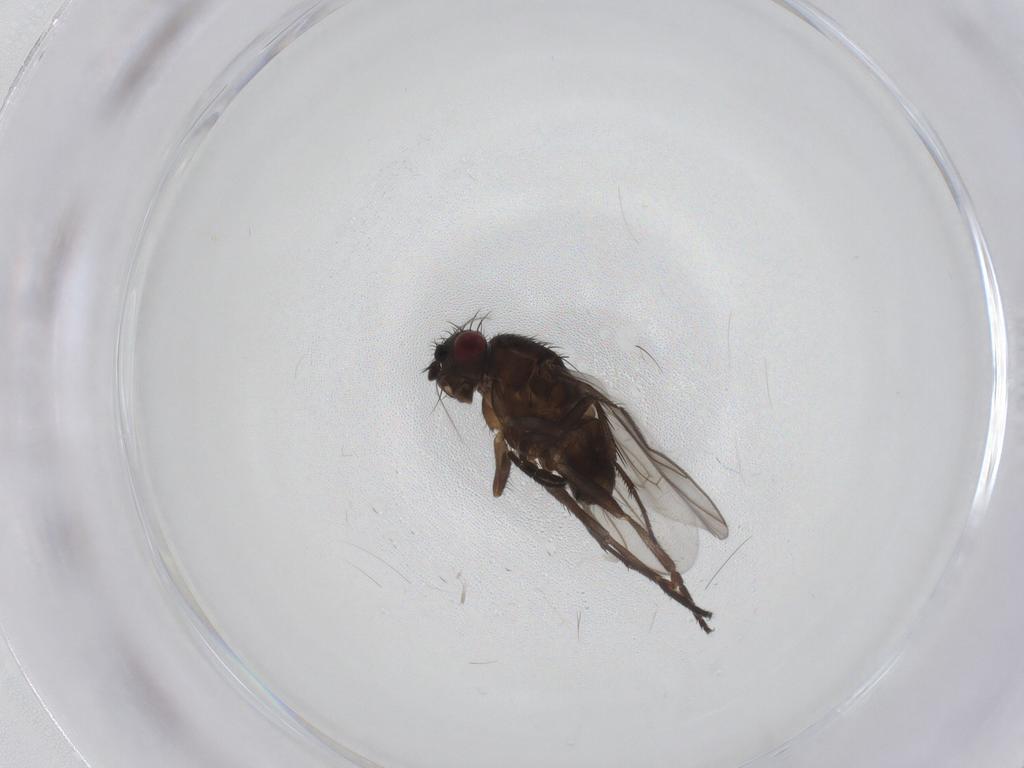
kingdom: Animalia
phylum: Arthropoda
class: Insecta
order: Diptera
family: Sphaeroceridae
